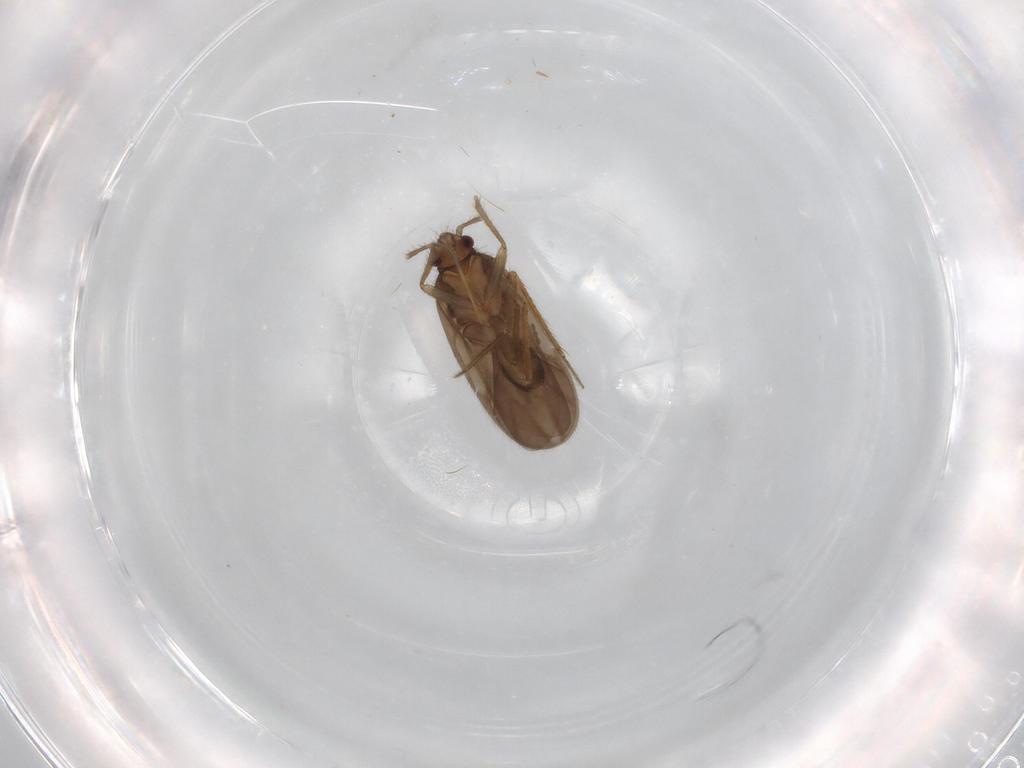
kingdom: Animalia
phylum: Arthropoda
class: Insecta
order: Hemiptera
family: Ceratocombidae
